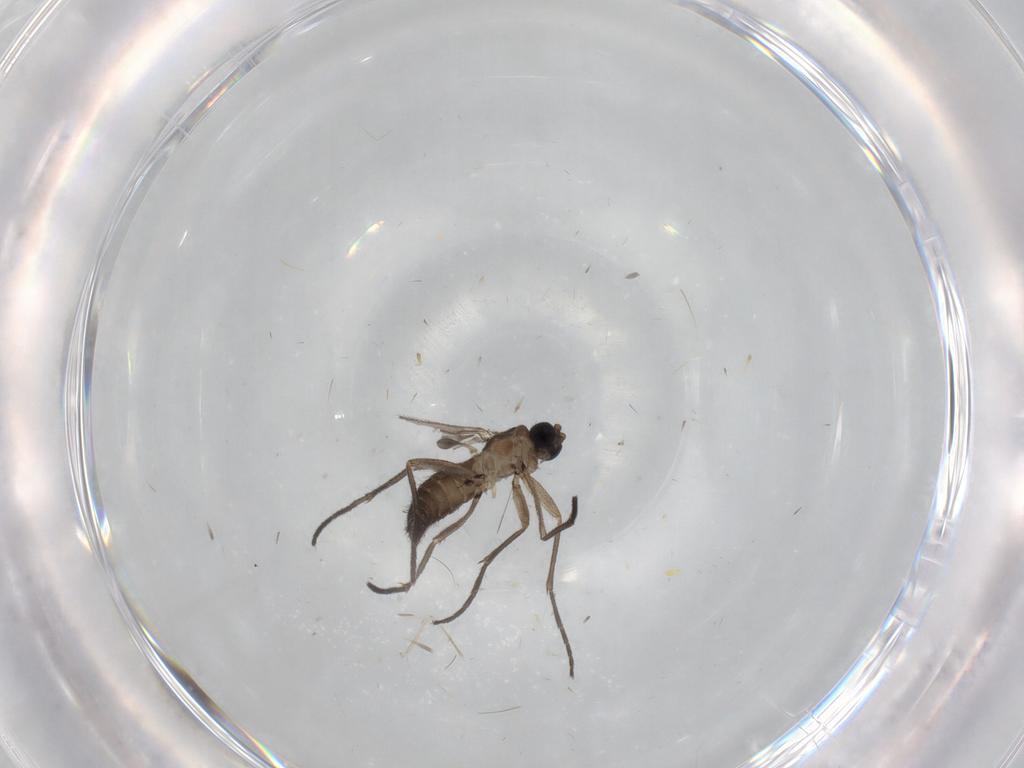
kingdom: Animalia
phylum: Arthropoda
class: Insecta
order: Diptera
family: Sciaridae
